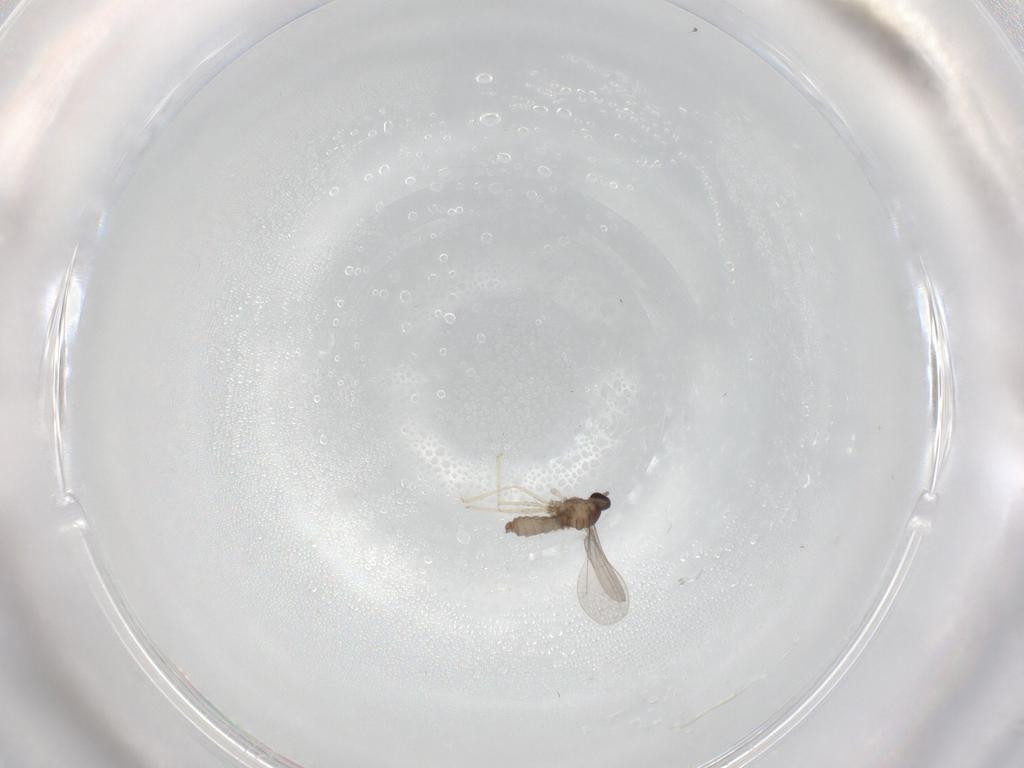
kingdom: Animalia
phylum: Arthropoda
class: Insecta
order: Diptera
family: Cecidomyiidae
